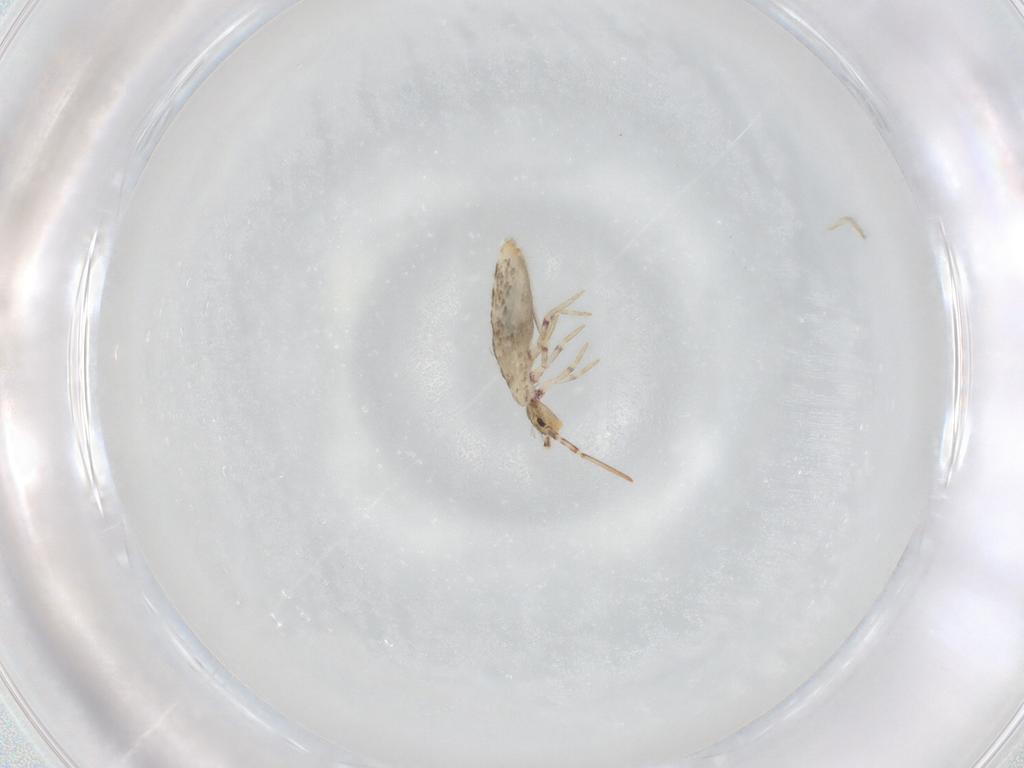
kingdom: Animalia
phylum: Arthropoda
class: Collembola
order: Entomobryomorpha
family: Entomobryidae
